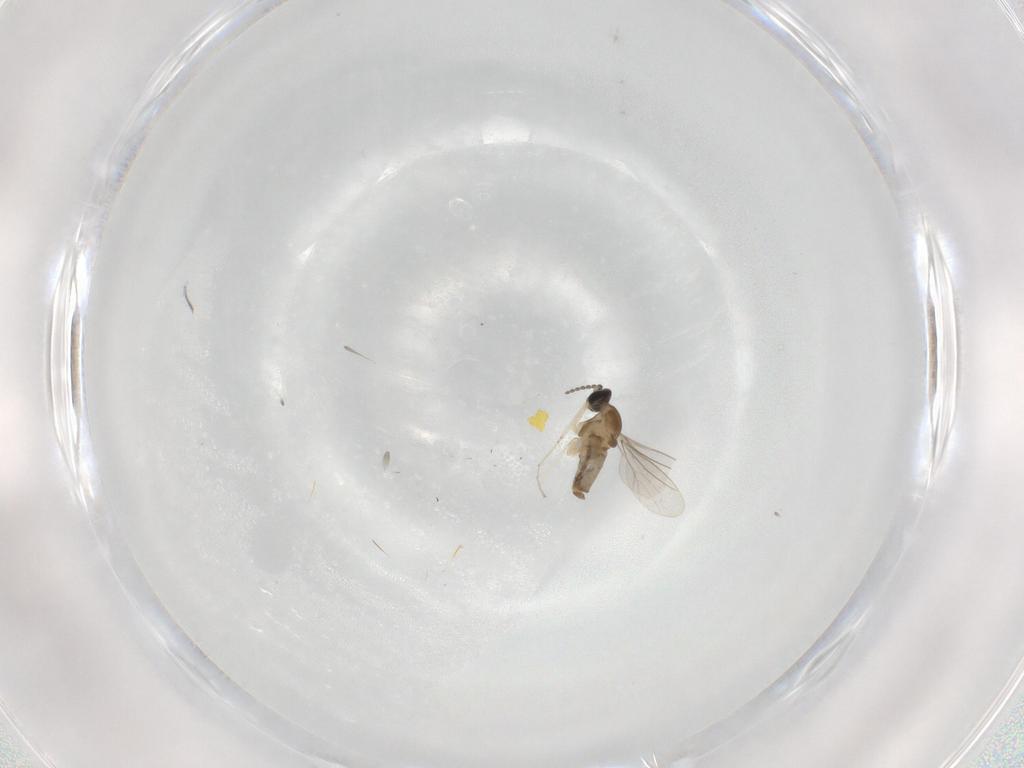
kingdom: Animalia
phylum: Arthropoda
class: Insecta
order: Diptera
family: Cecidomyiidae
